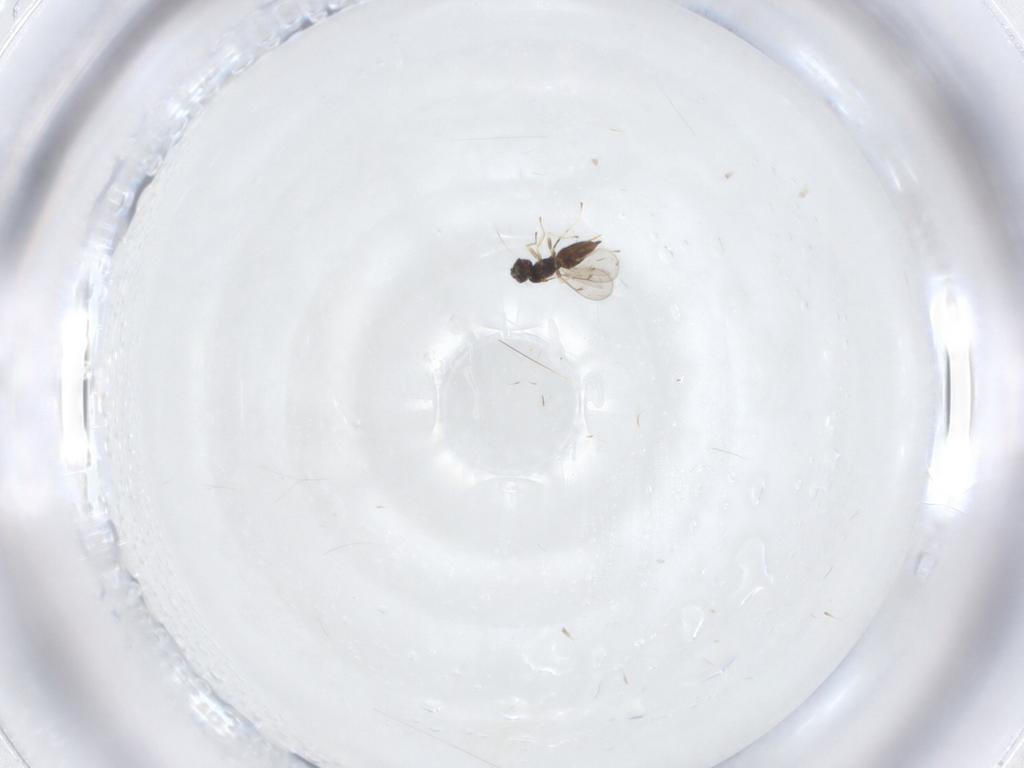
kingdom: Animalia
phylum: Arthropoda
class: Insecta
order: Hymenoptera
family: Eulophidae
